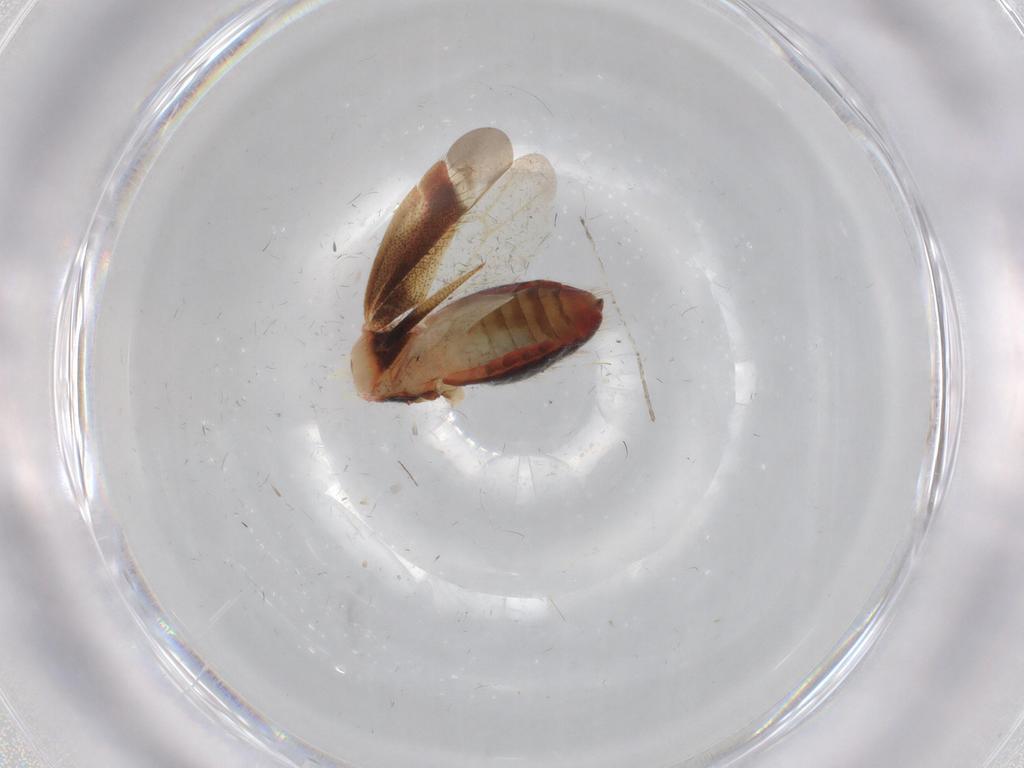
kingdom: Animalia
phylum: Arthropoda
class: Insecta
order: Hemiptera
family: Miridae
